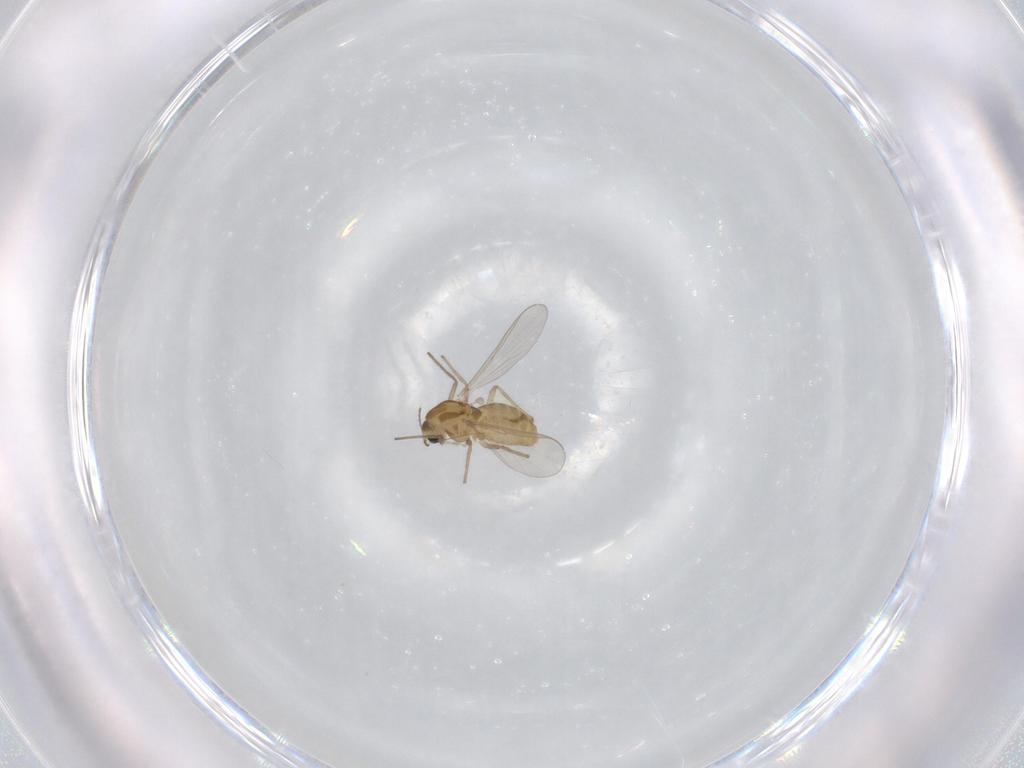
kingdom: Animalia
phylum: Arthropoda
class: Insecta
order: Diptera
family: Chironomidae
